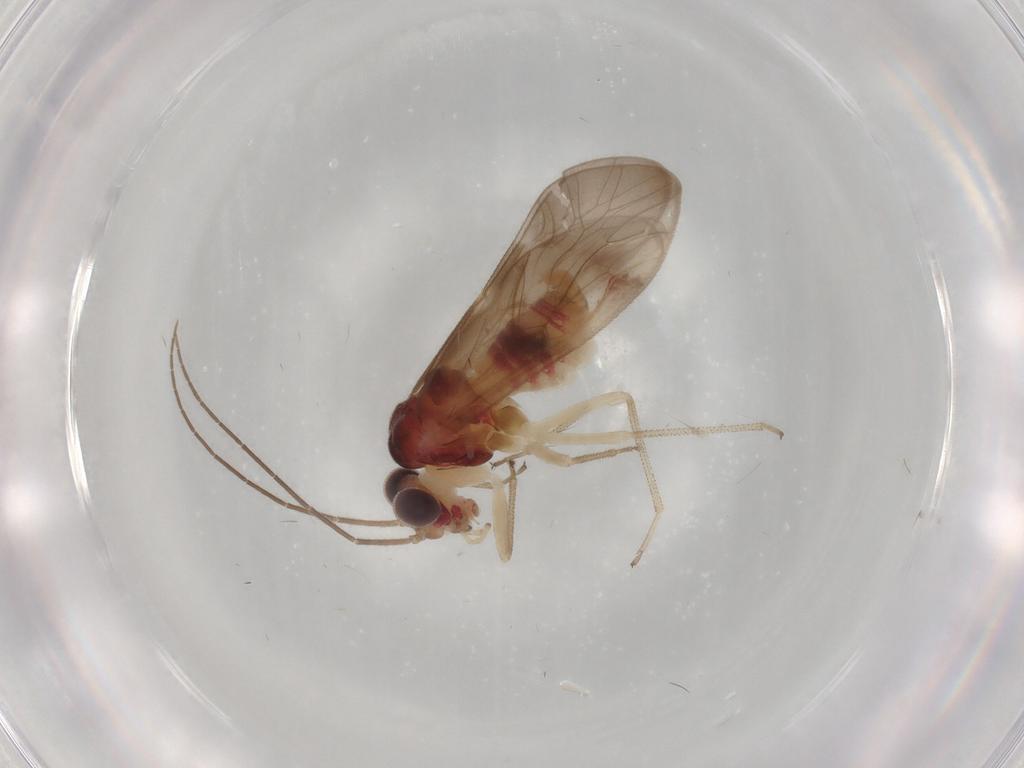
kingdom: Animalia
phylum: Arthropoda
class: Insecta
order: Psocodea
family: Caeciliusidae
